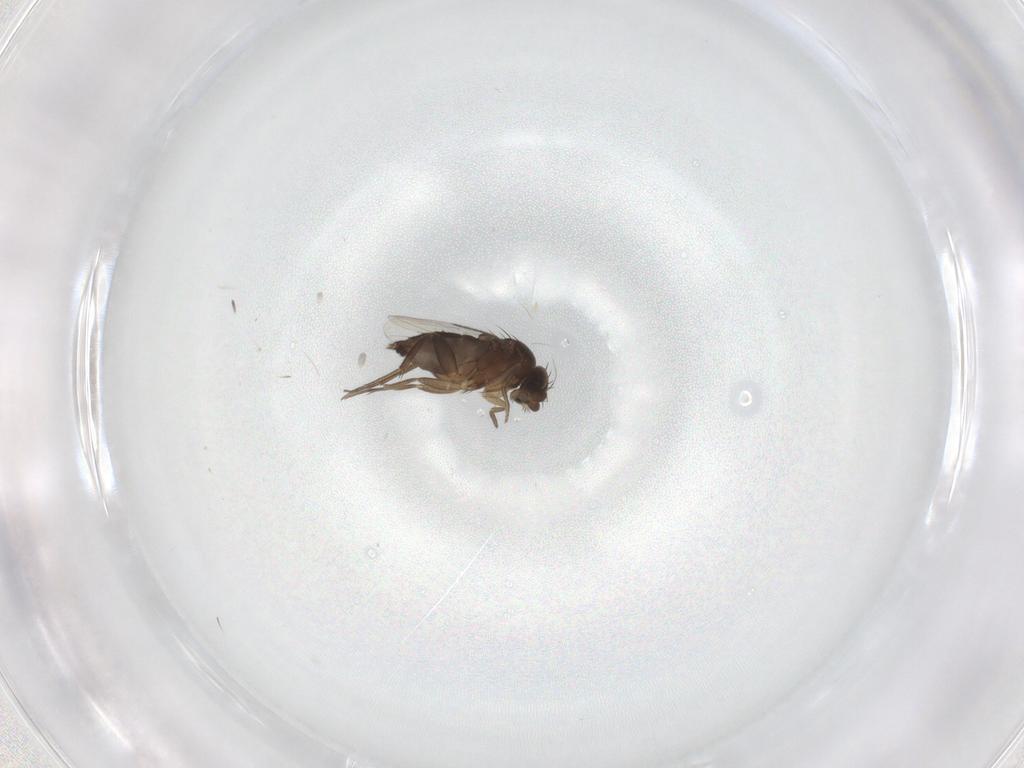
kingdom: Animalia
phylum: Arthropoda
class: Insecta
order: Diptera
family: Phoridae
